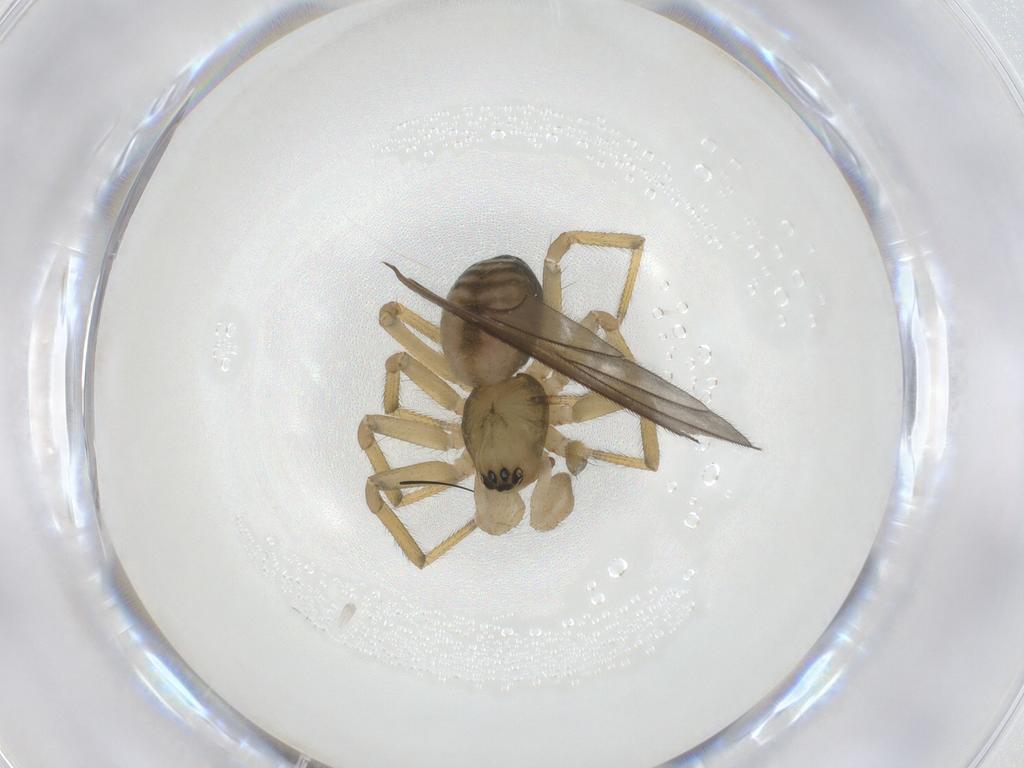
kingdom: Animalia
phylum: Arthropoda
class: Arachnida
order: Araneae
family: Linyphiidae
